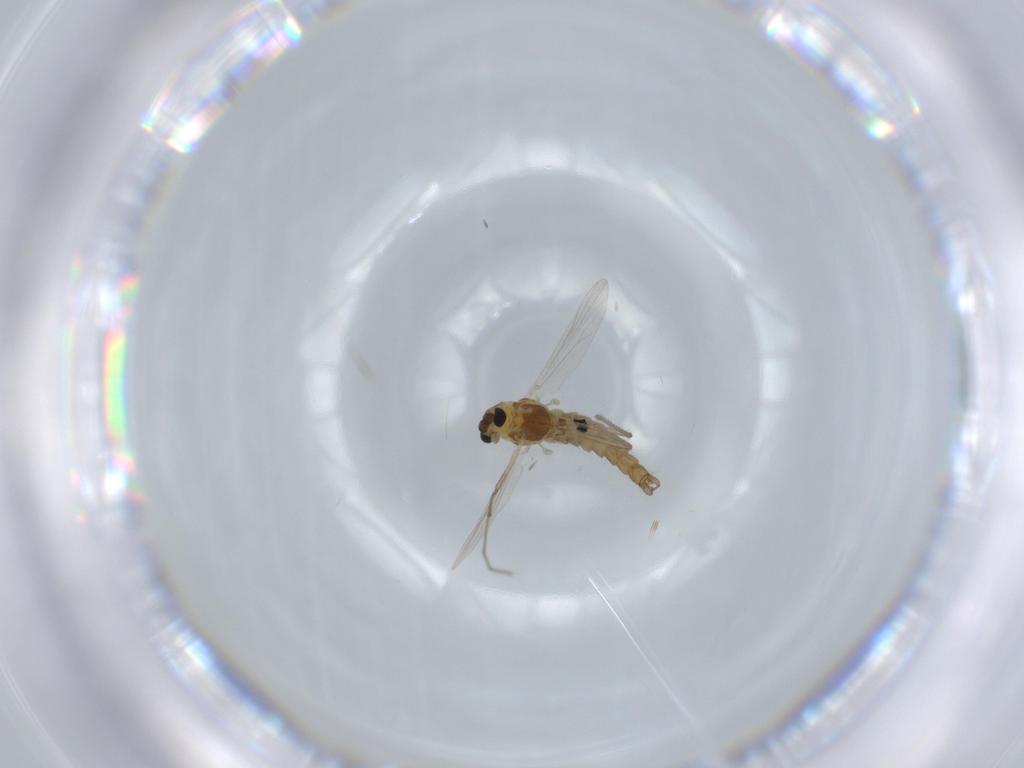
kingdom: Animalia
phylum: Arthropoda
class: Insecta
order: Diptera
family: Chironomidae
